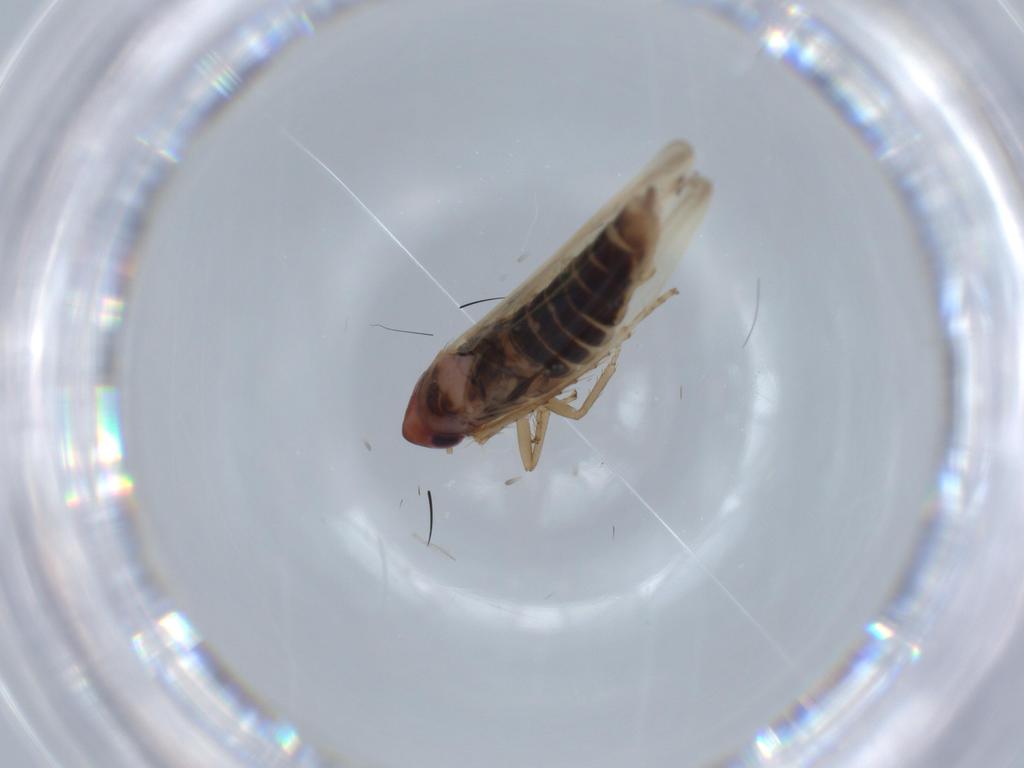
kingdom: Animalia
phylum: Arthropoda
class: Insecta
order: Hemiptera
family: Cicadellidae
